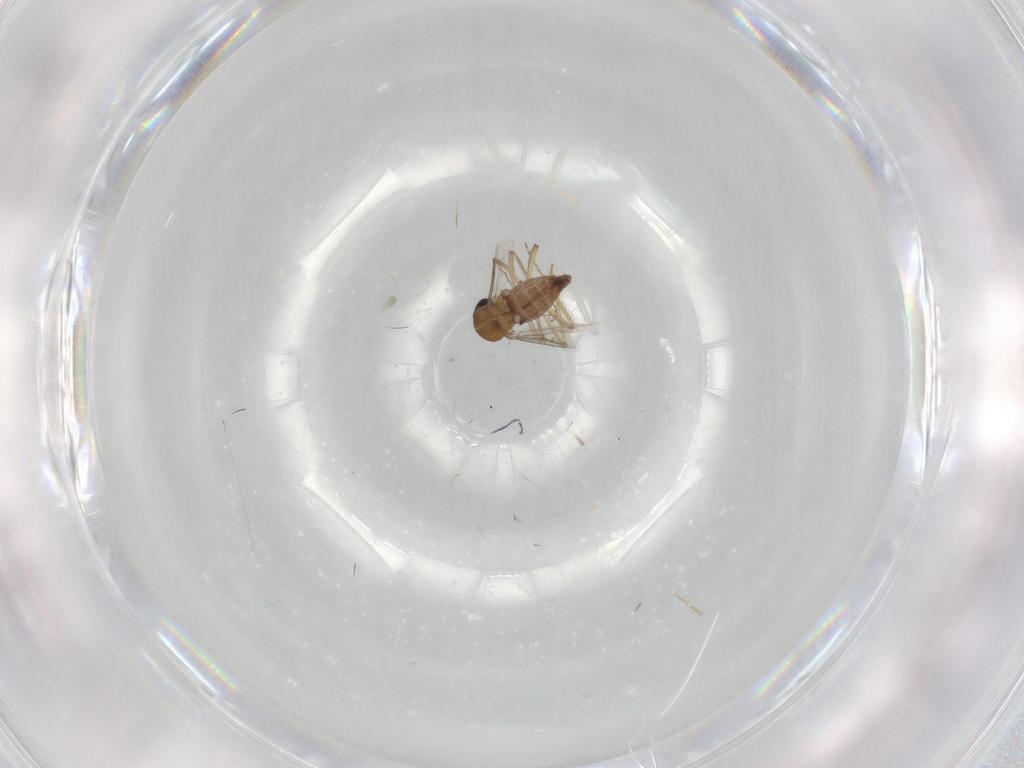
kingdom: Animalia
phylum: Arthropoda
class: Insecta
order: Diptera
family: Ceratopogonidae
